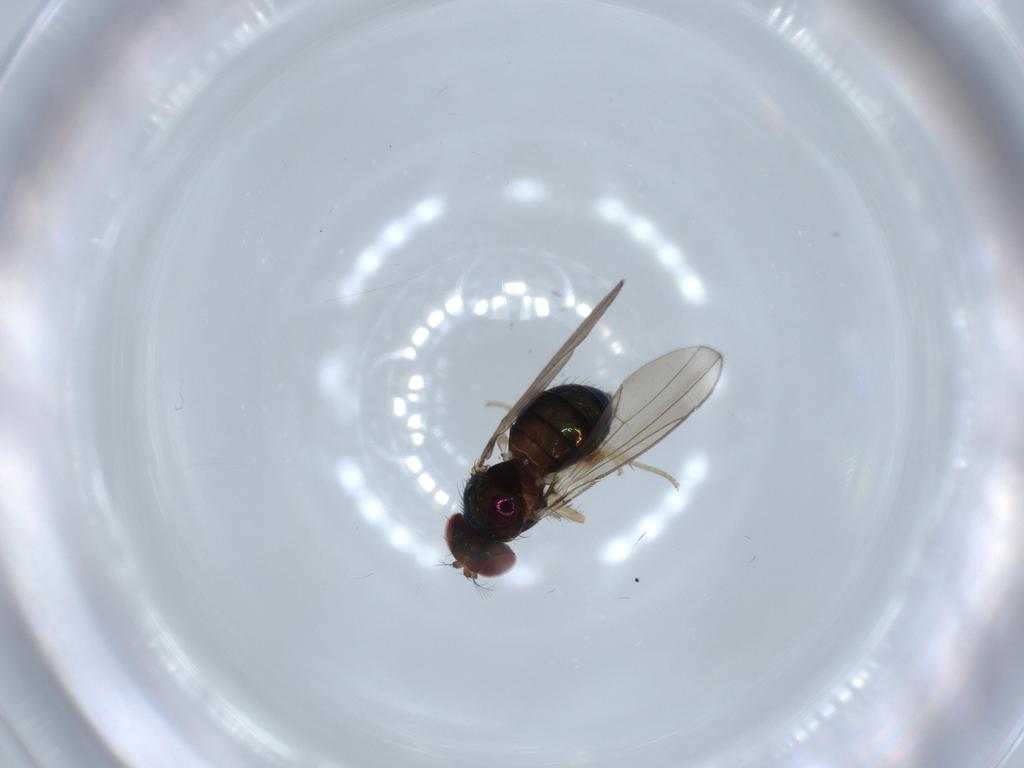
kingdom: Animalia
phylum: Arthropoda
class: Insecta
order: Diptera
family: Drosophilidae
